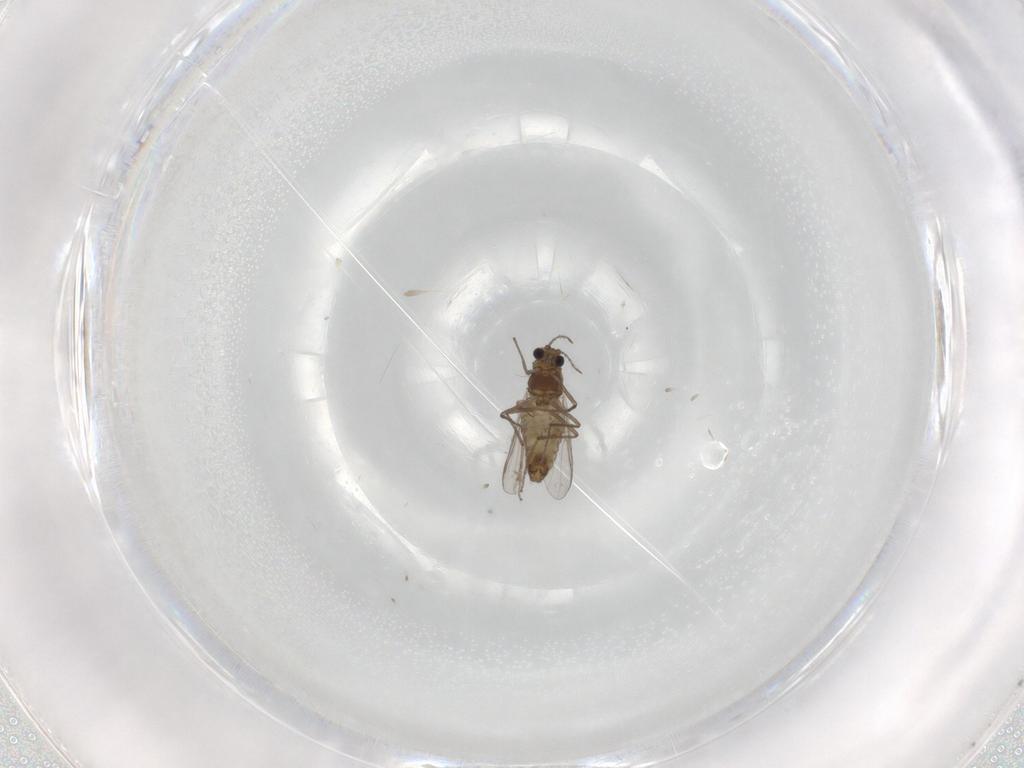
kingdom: Animalia
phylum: Arthropoda
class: Insecta
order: Diptera
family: Chironomidae
